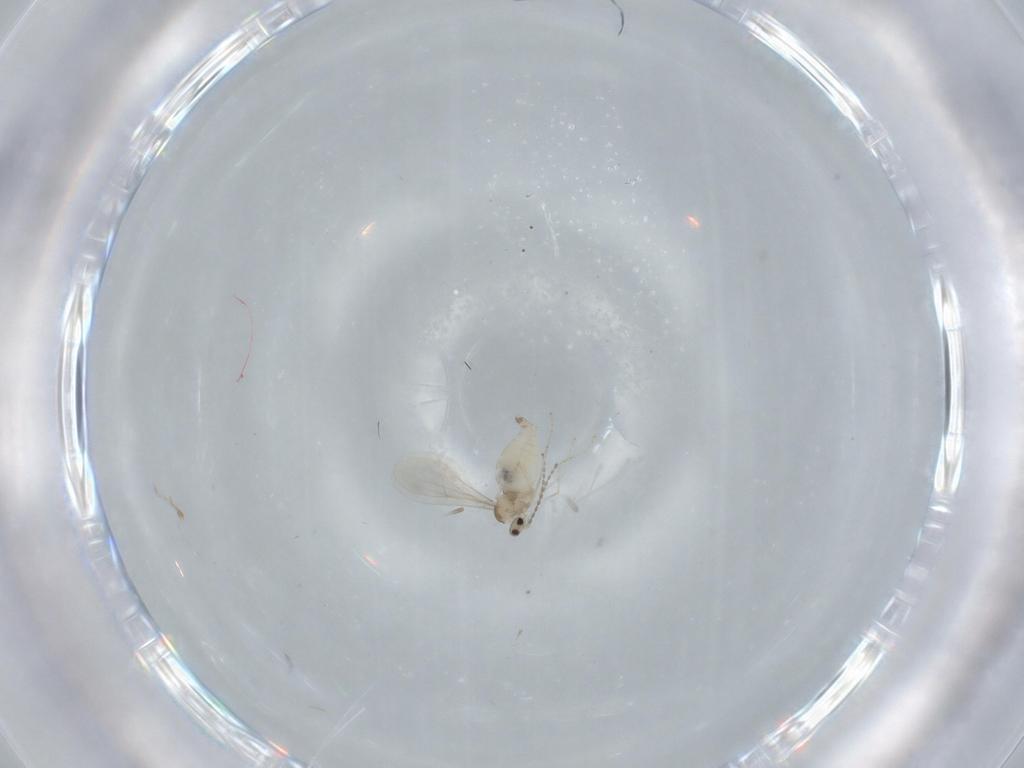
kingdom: Animalia
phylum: Arthropoda
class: Insecta
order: Diptera
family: Cecidomyiidae
